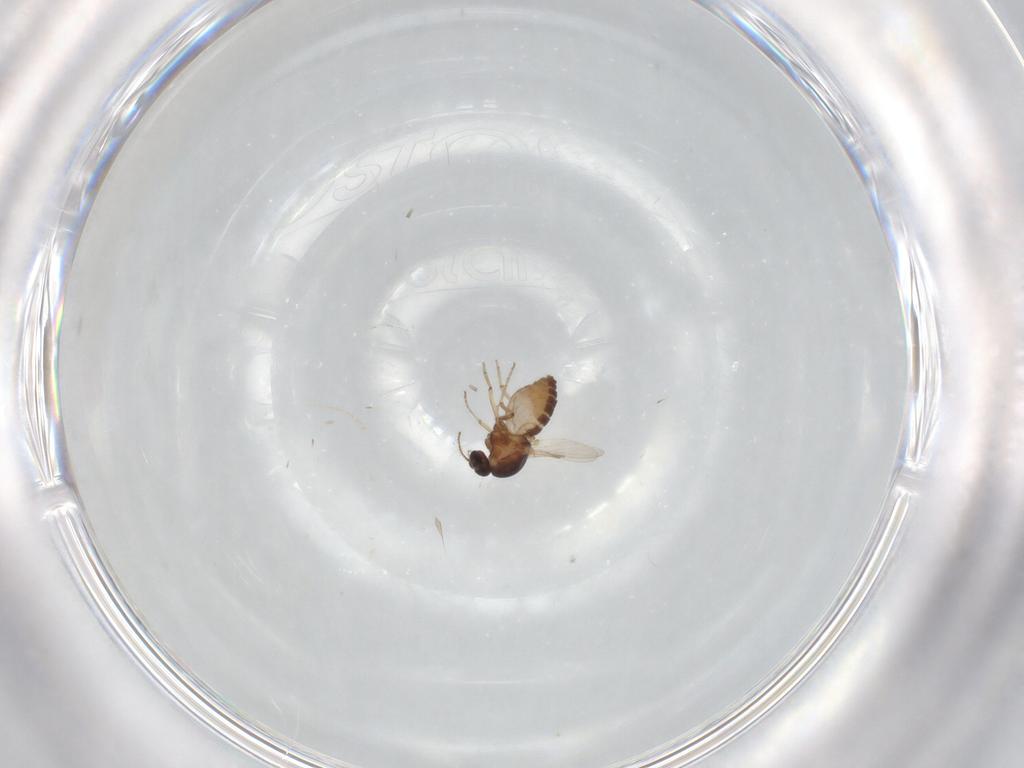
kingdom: Animalia
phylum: Arthropoda
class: Insecta
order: Diptera
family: Ceratopogonidae
